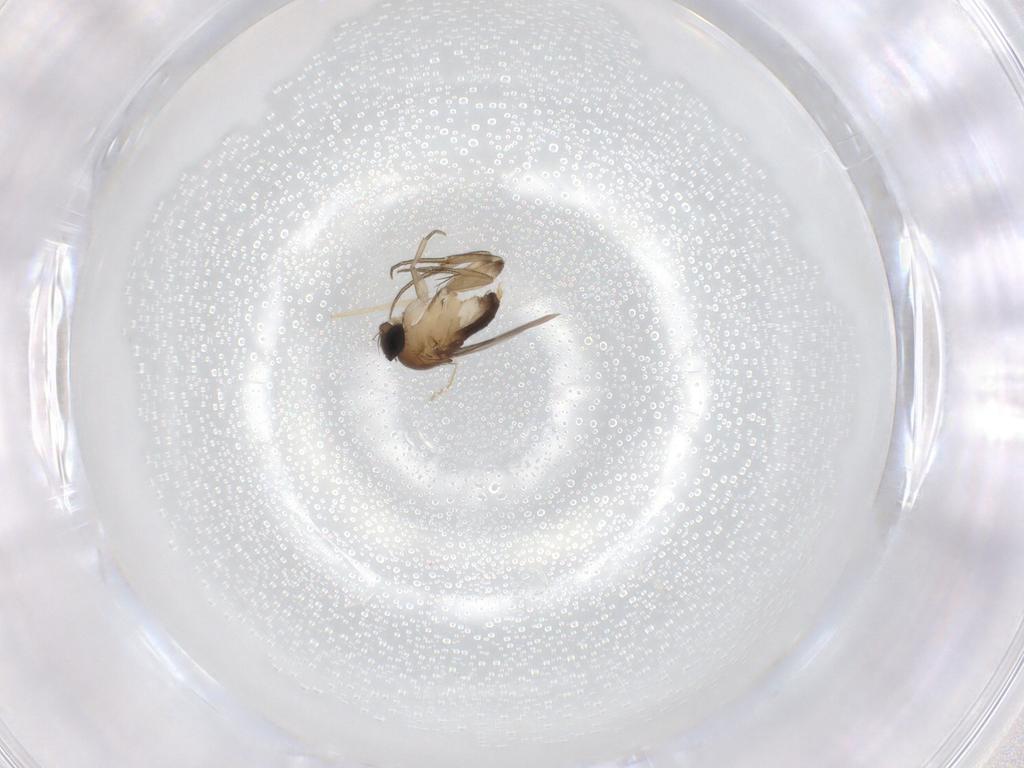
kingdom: Animalia
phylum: Arthropoda
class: Insecta
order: Diptera
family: Phoridae
